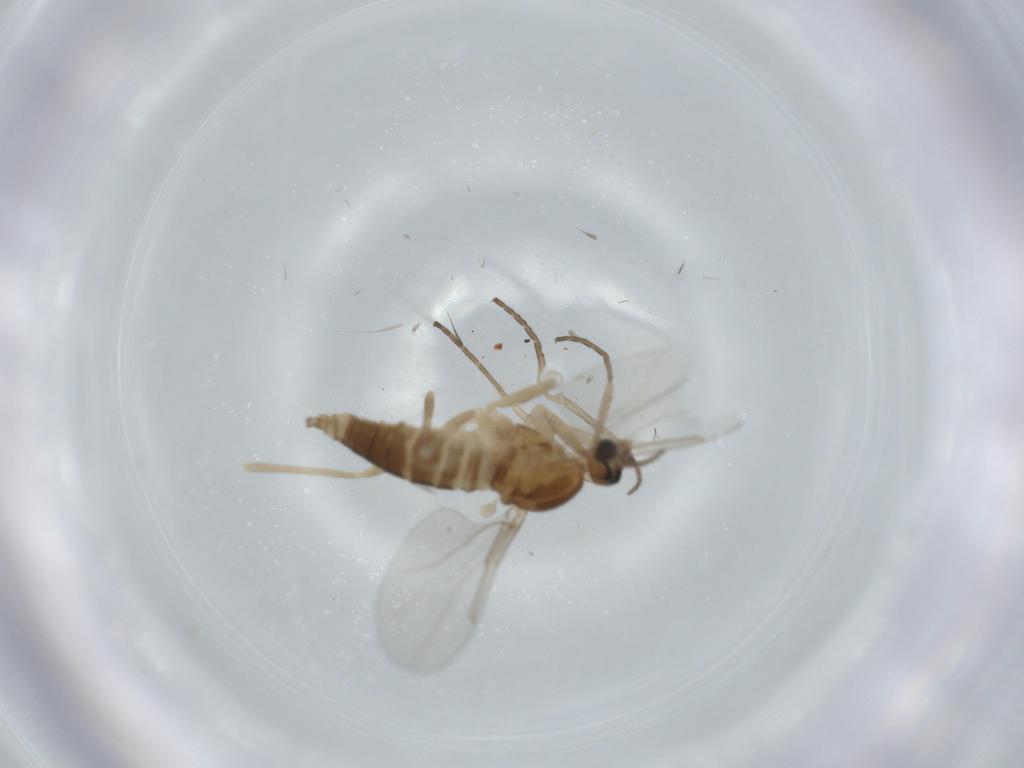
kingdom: Animalia
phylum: Arthropoda
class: Insecta
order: Diptera
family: Cecidomyiidae
